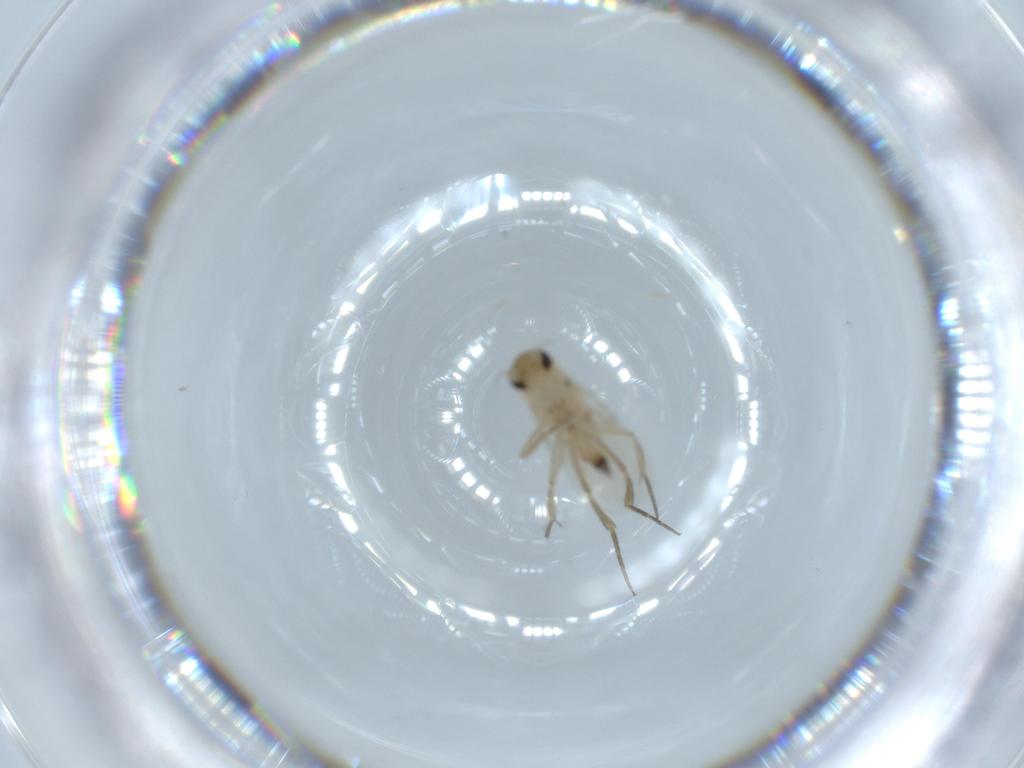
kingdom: Animalia
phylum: Arthropoda
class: Insecta
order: Diptera
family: Phoridae
